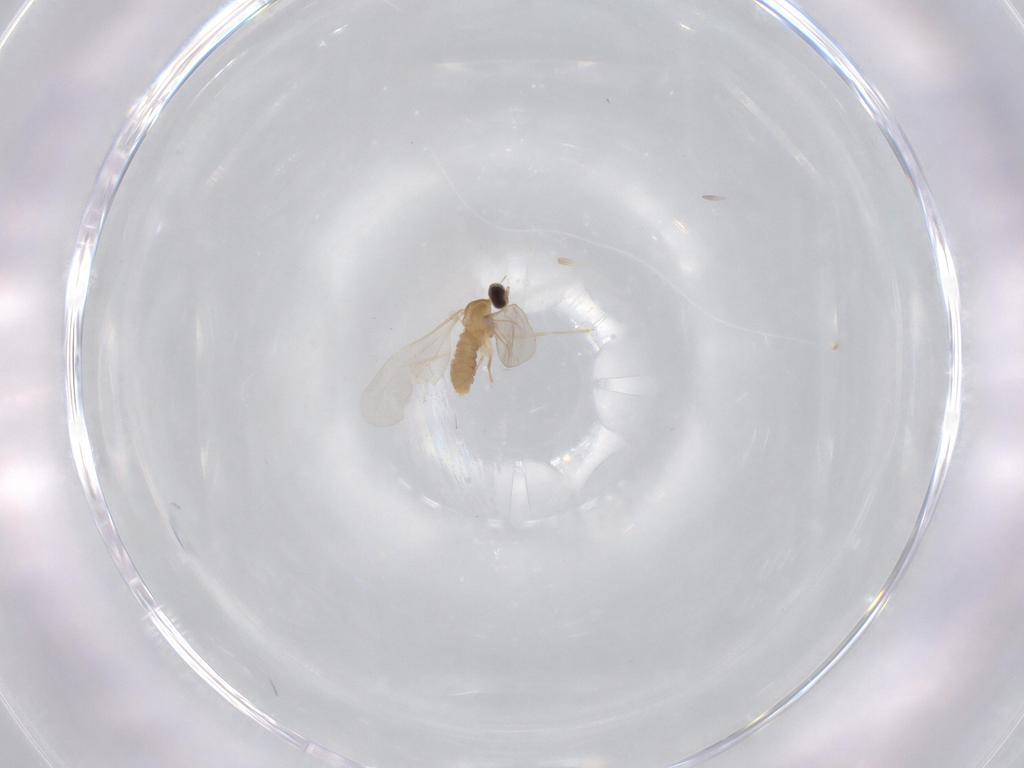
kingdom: Animalia
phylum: Arthropoda
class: Insecta
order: Diptera
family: Cecidomyiidae
